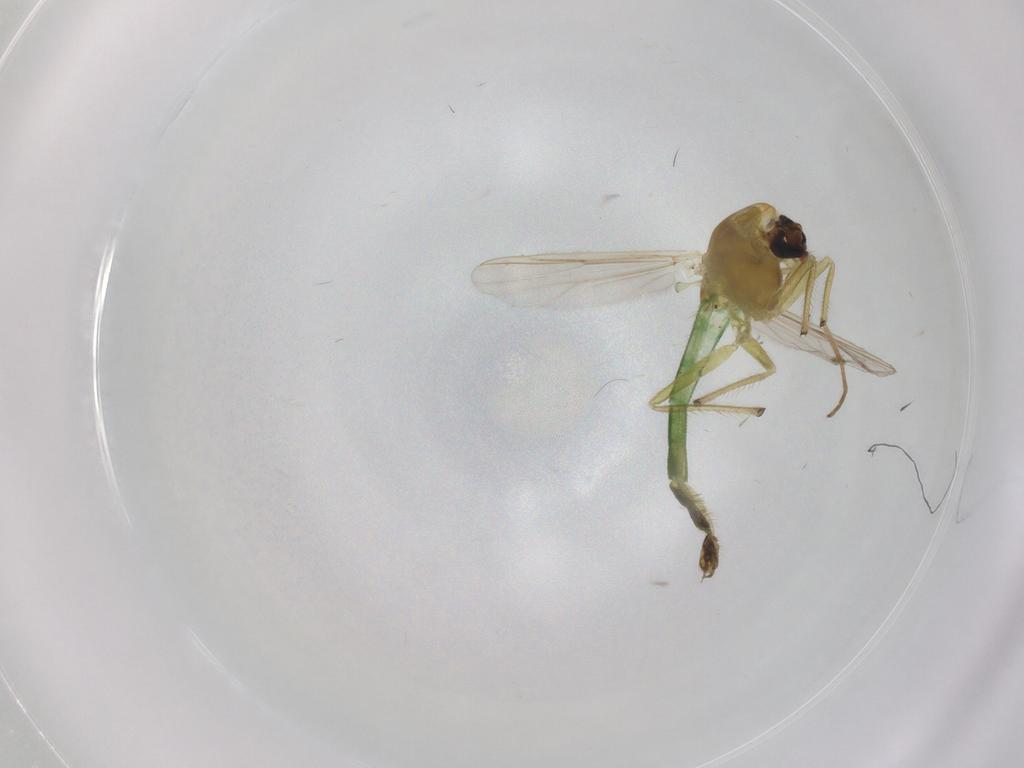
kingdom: Animalia
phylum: Arthropoda
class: Insecta
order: Diptera
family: Chironomidae
